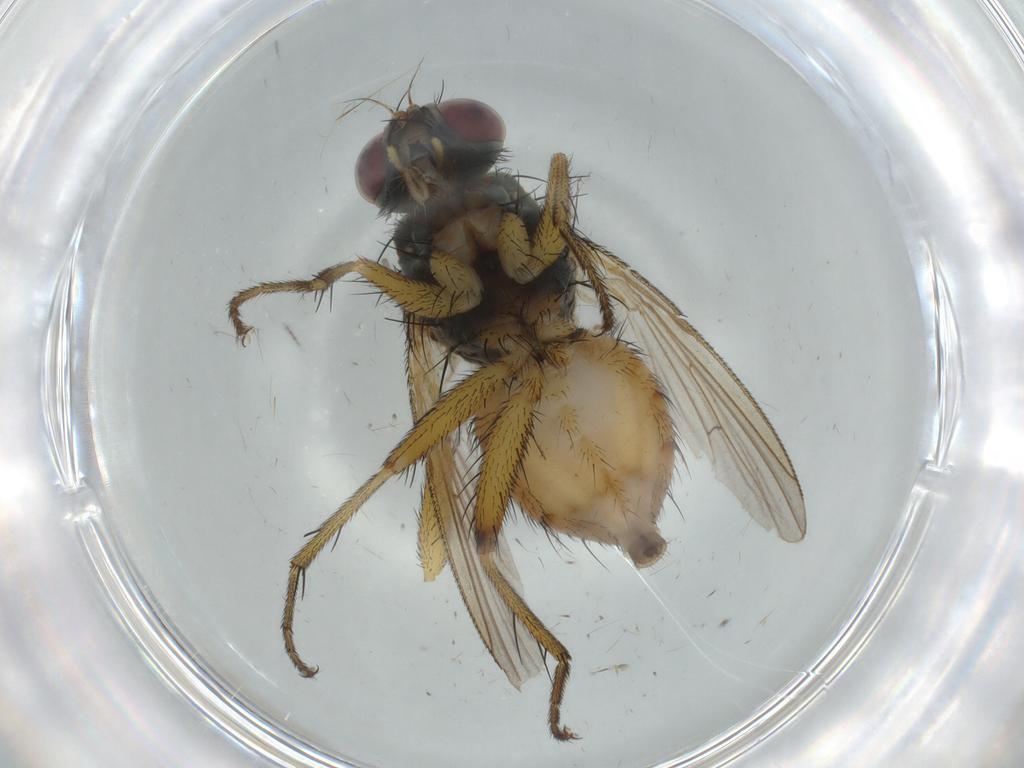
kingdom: Animalia
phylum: Arthropoda
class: Insecta
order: Diptera
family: Muscidae
